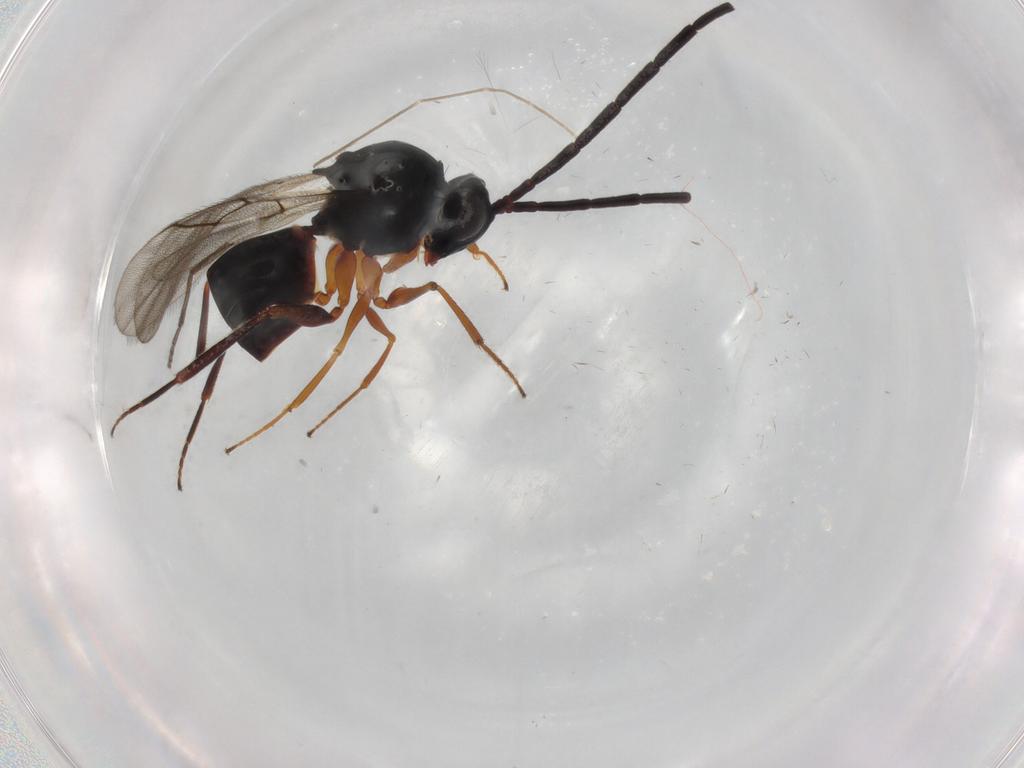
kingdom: Animalia
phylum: Arthropoda
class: Insecta
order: Hymenoptera
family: Figitidae
